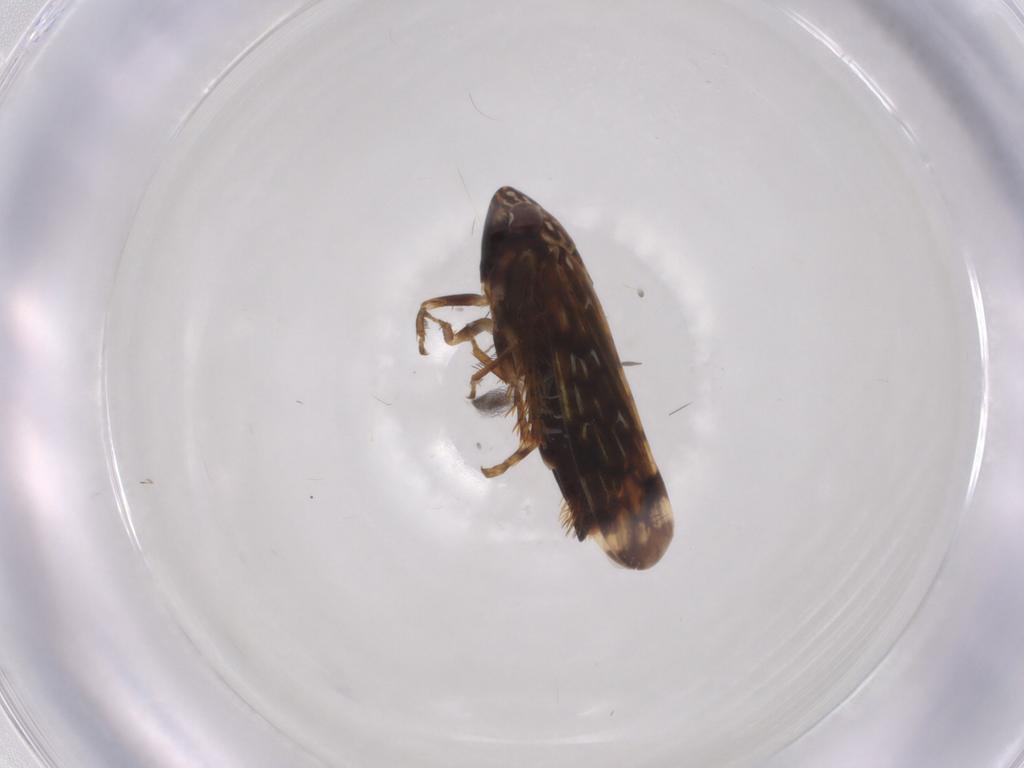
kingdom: Animalia
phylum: Arthropoda
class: Insecta
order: Hemiptera
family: Cicadellidae
